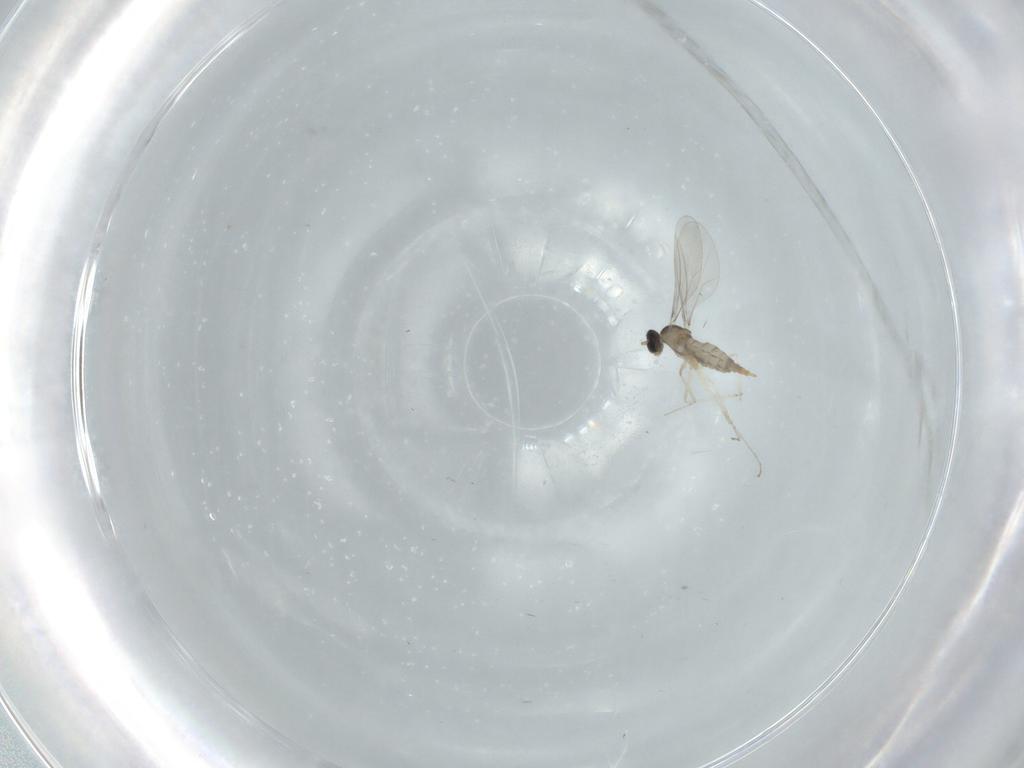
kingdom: Animalia
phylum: Arthropoda
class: Insecta
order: Diptera
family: Cecidomyiidae
